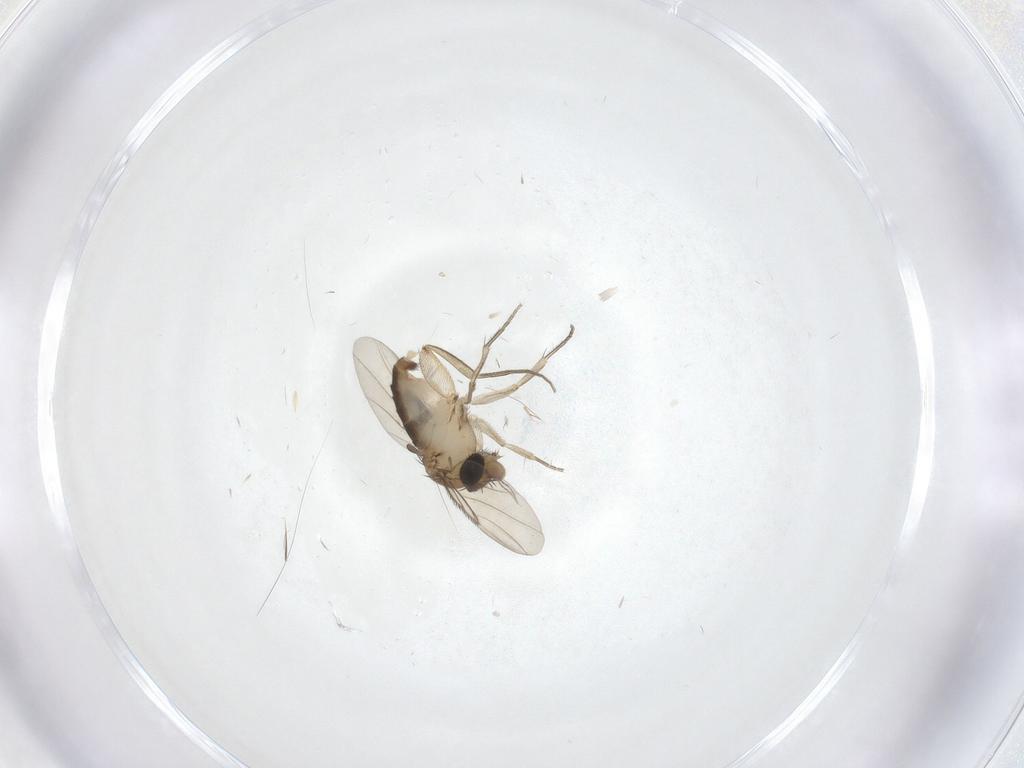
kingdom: Animalia
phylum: Arthropoda
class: Insecta
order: Diptera
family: Phoridae
